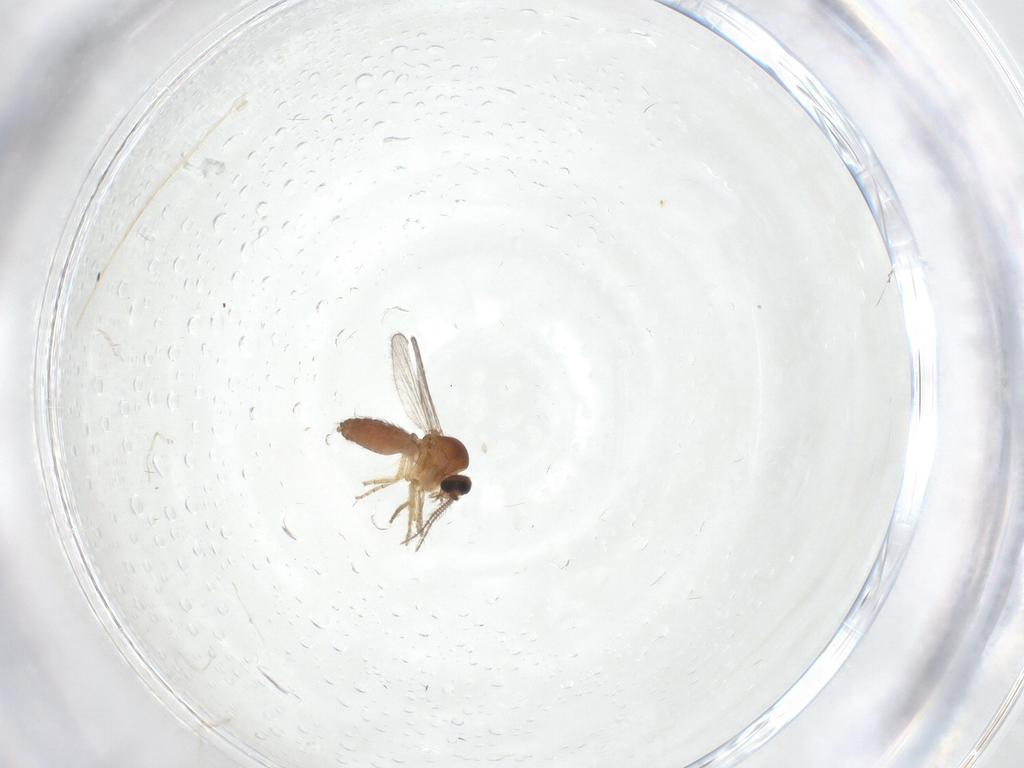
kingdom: Animalia
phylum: Arthropoda
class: Insecta
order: Diptera
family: Ceratopogonidae
